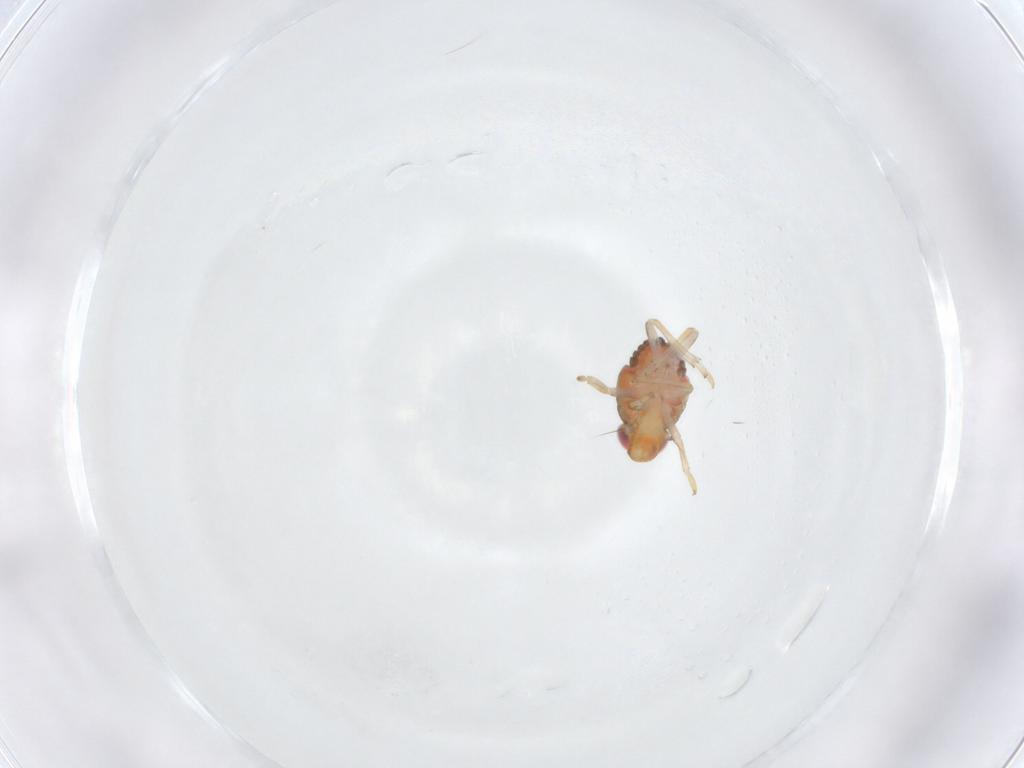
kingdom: Animalia
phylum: Arthropoda
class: Insecta
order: Hemiptera
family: Issidae
